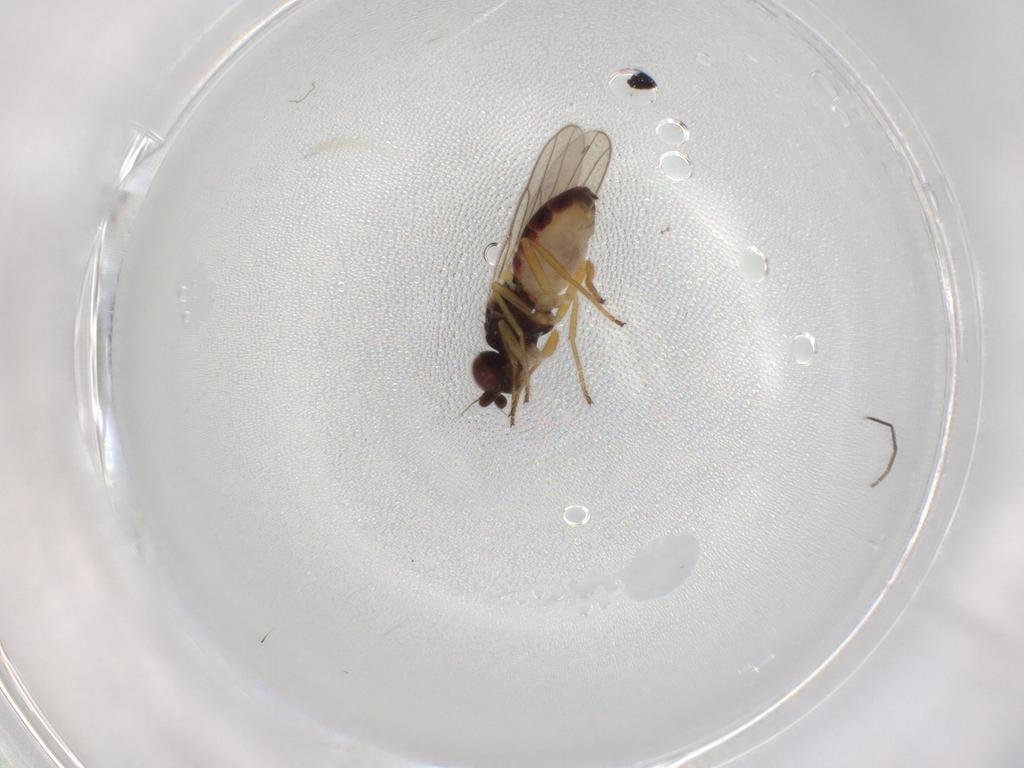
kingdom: Animalia
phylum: Arthropoda
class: Insecta
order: Diptera
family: Chloropidae
